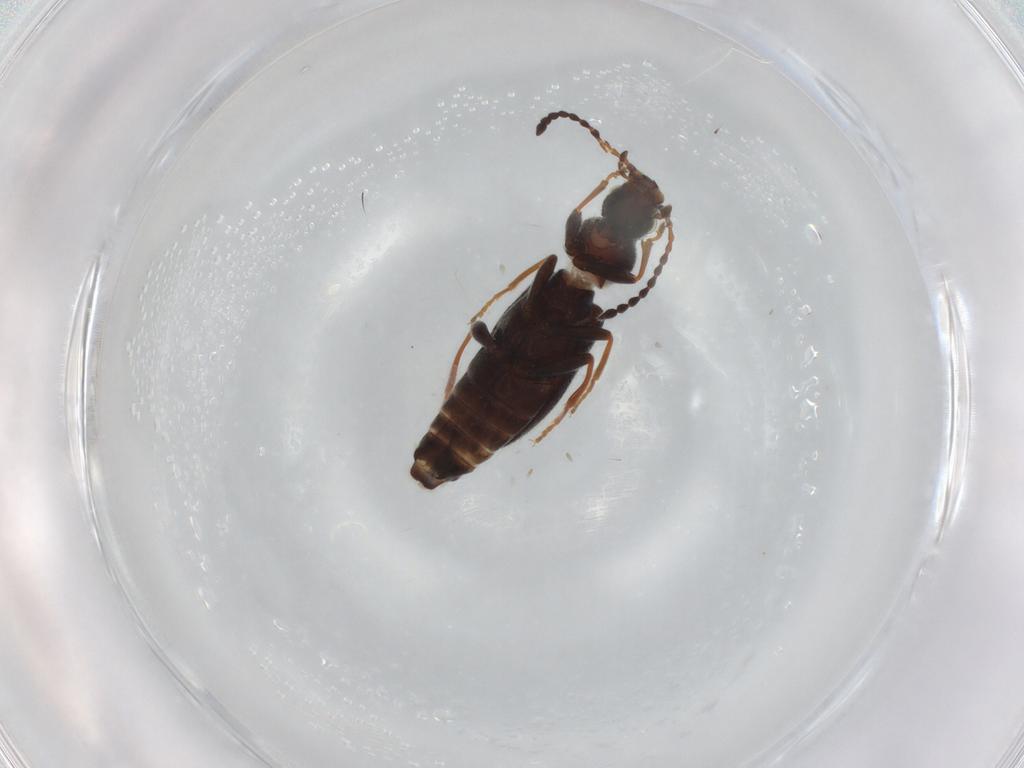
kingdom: Animalia
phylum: Arthropoda
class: Insecta
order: Coleoptera
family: Anthicidae
